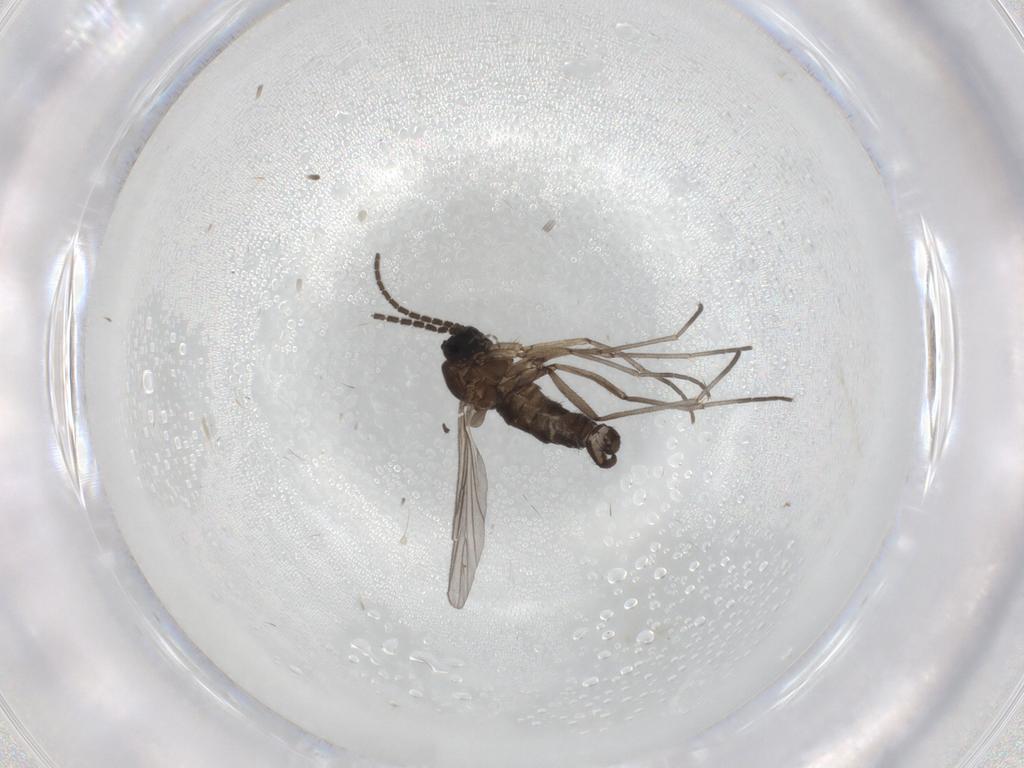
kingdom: Animalia
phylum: Arthropoda
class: Insecta
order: Diptera
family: Sciaridae
